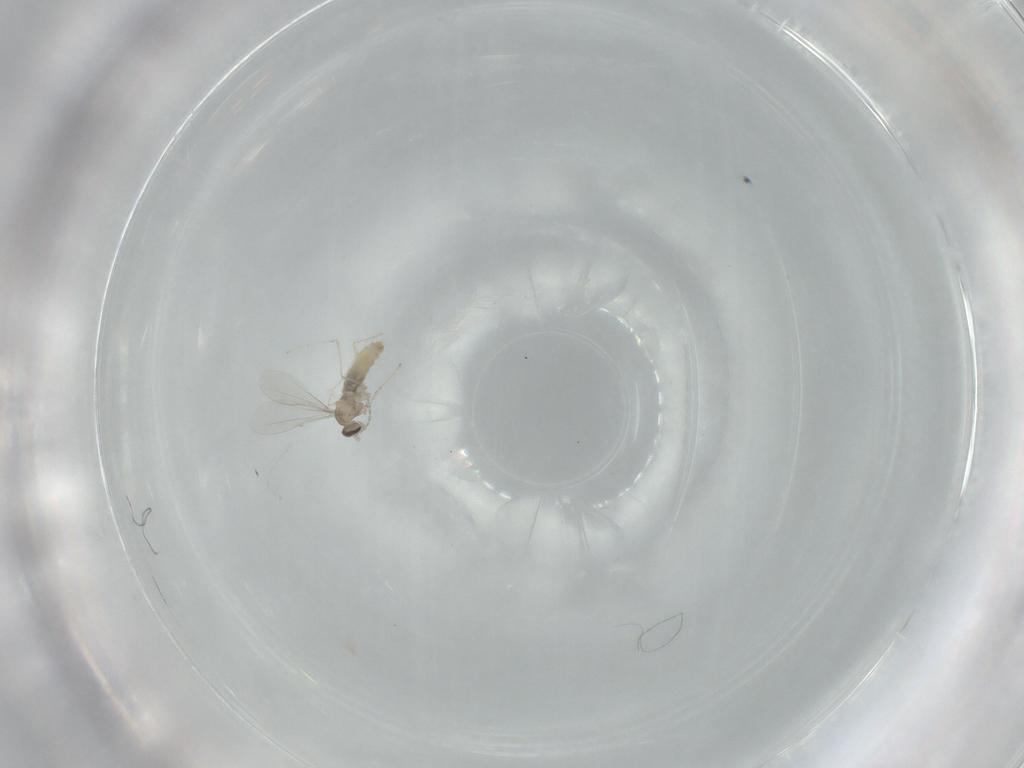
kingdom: Animalia
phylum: Arthropoda
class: Insecta
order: Diptera
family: Cecidomyiidae
